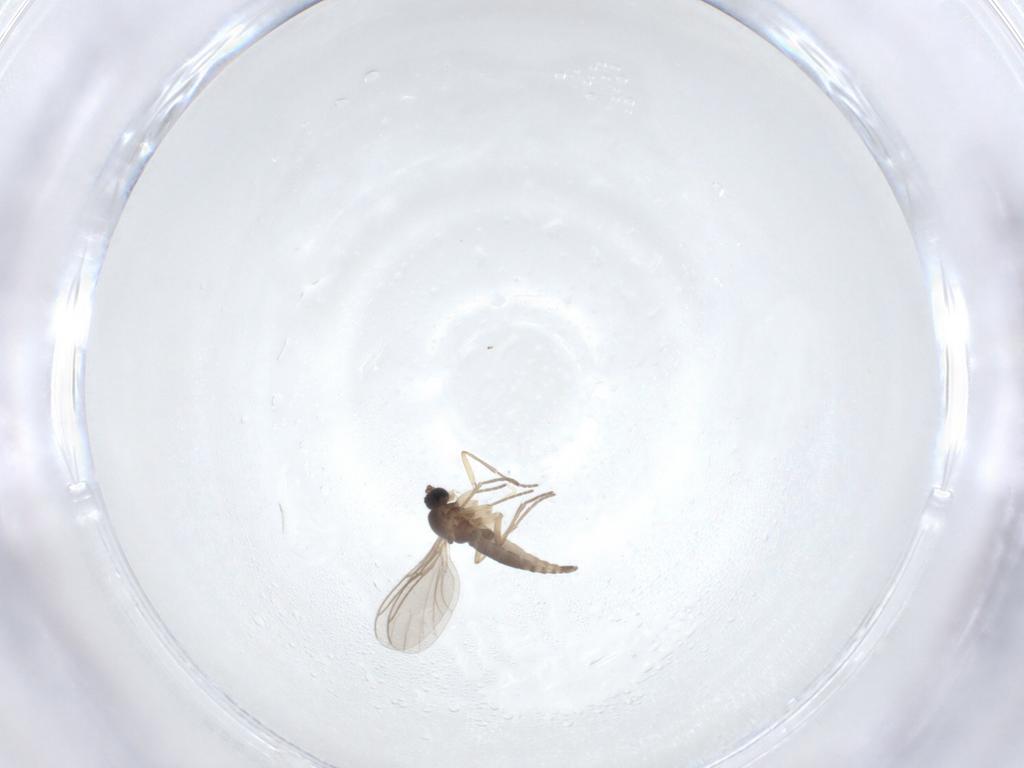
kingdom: Animalia
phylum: Arthropoda
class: Insecta
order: Diptera
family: Sciaridae
